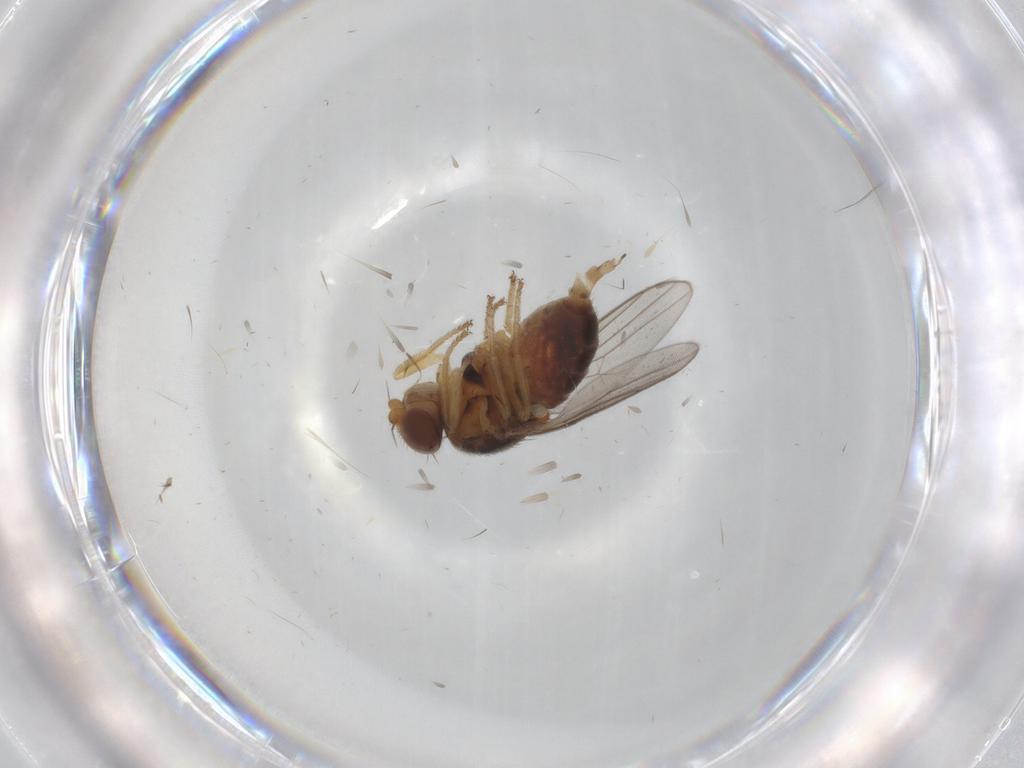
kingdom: Animalia
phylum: Arthropoda
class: Insecta
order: Diptera
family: Chloropidae
